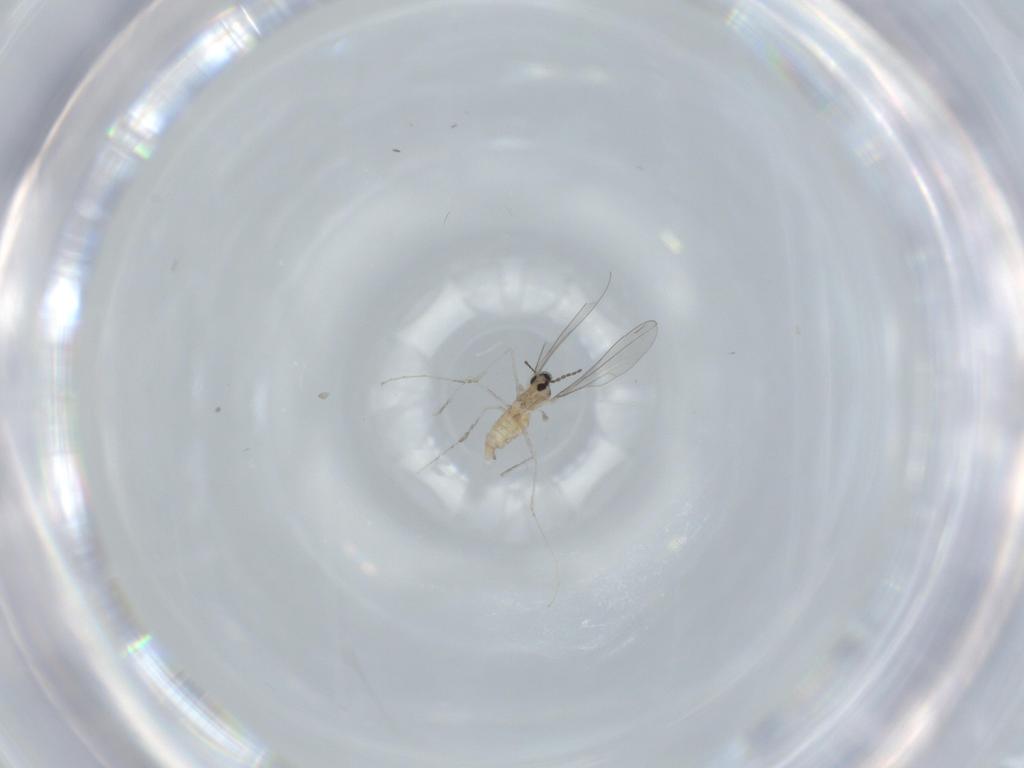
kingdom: Animalia
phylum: Arthropoda
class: Insecta
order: Diptera
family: Cecidomyiidae
